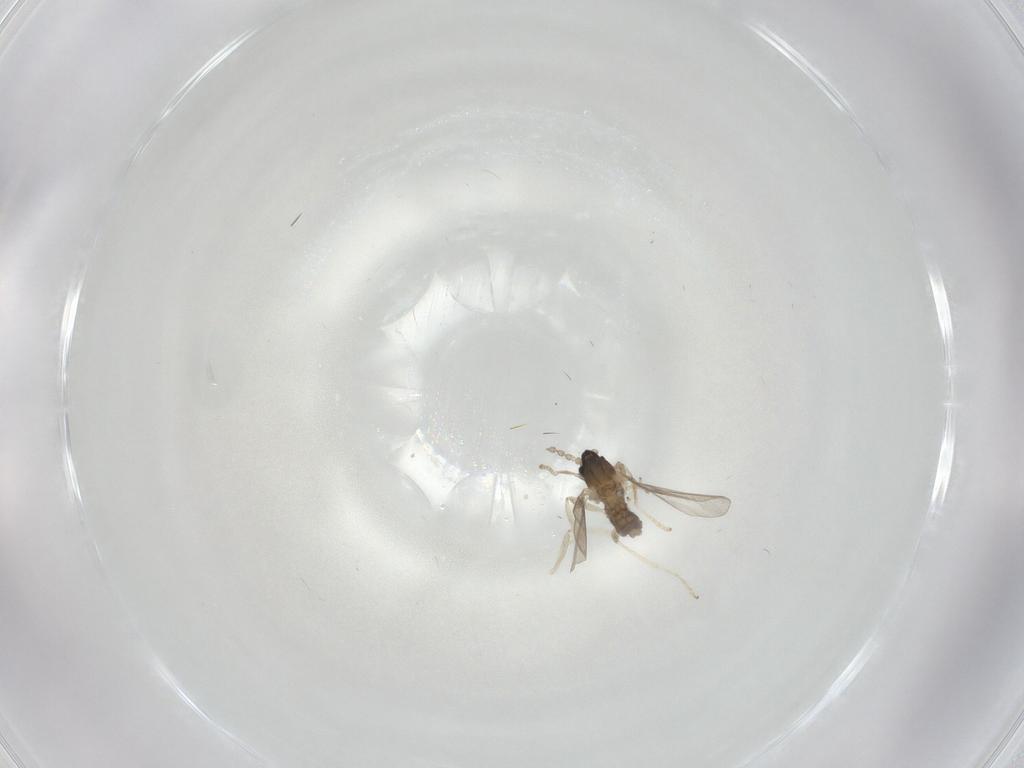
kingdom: Animalia
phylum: Arthropoda
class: Insecta
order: Diptera
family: Cecidomyiidae
